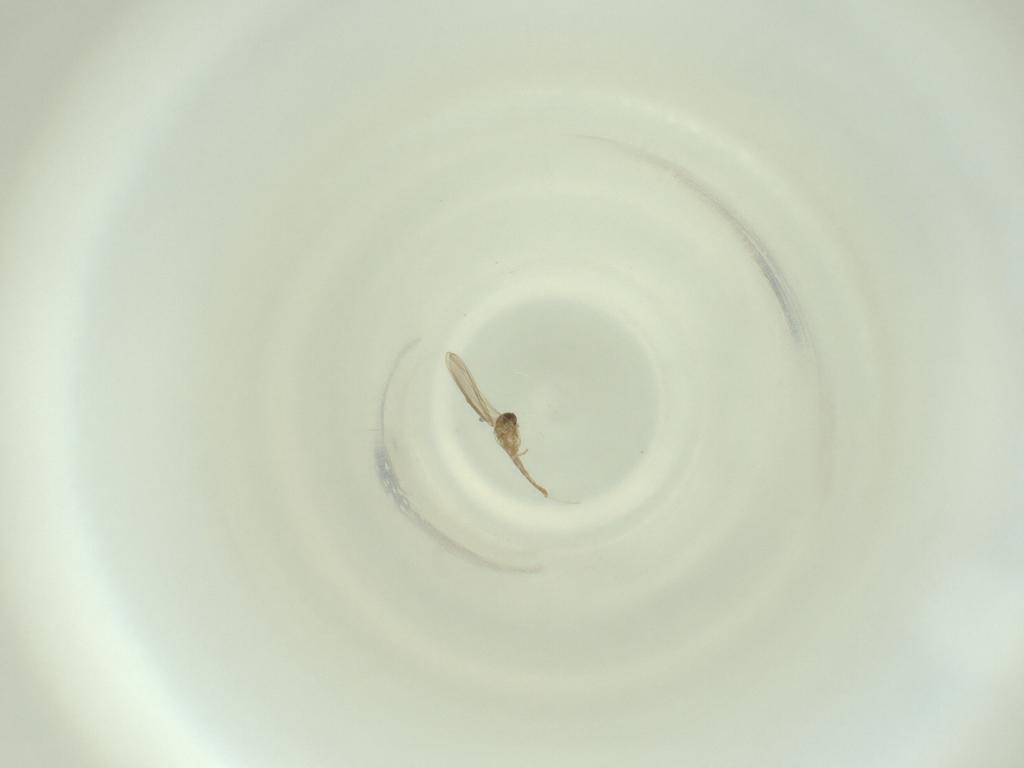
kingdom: Animalia
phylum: Arthropoda
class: Insecta
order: Diptera
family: Cecidomyiidae
